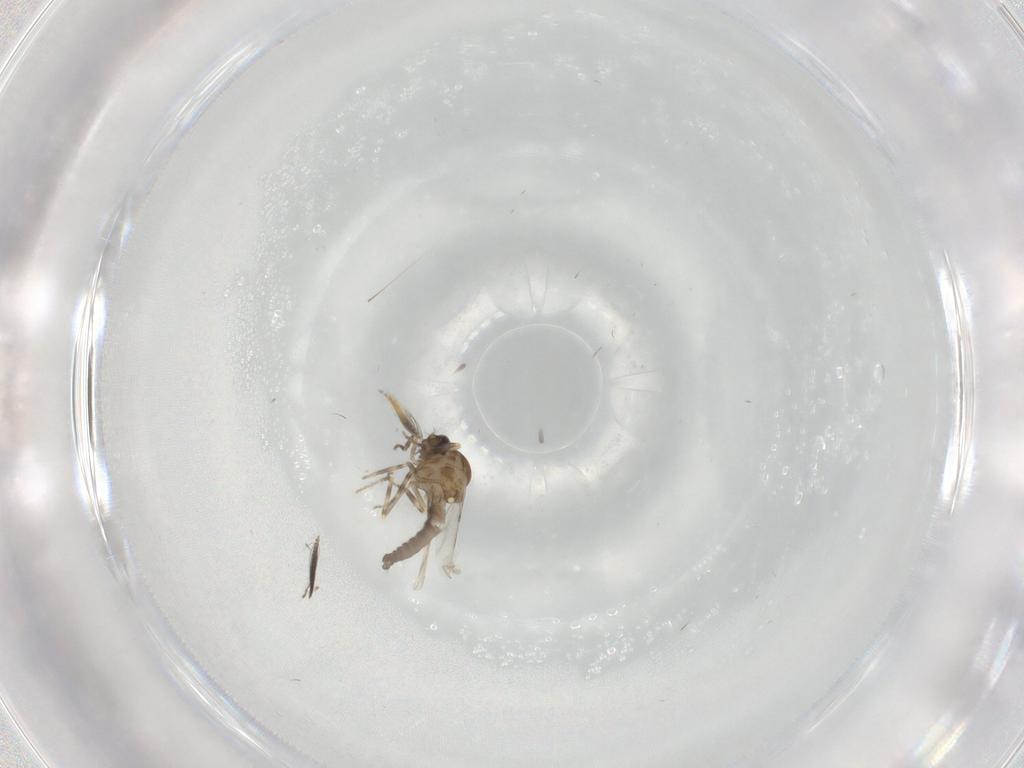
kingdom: Animalia
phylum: Arthropoda
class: Insecta
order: Diptera
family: Ceratopogonidae
